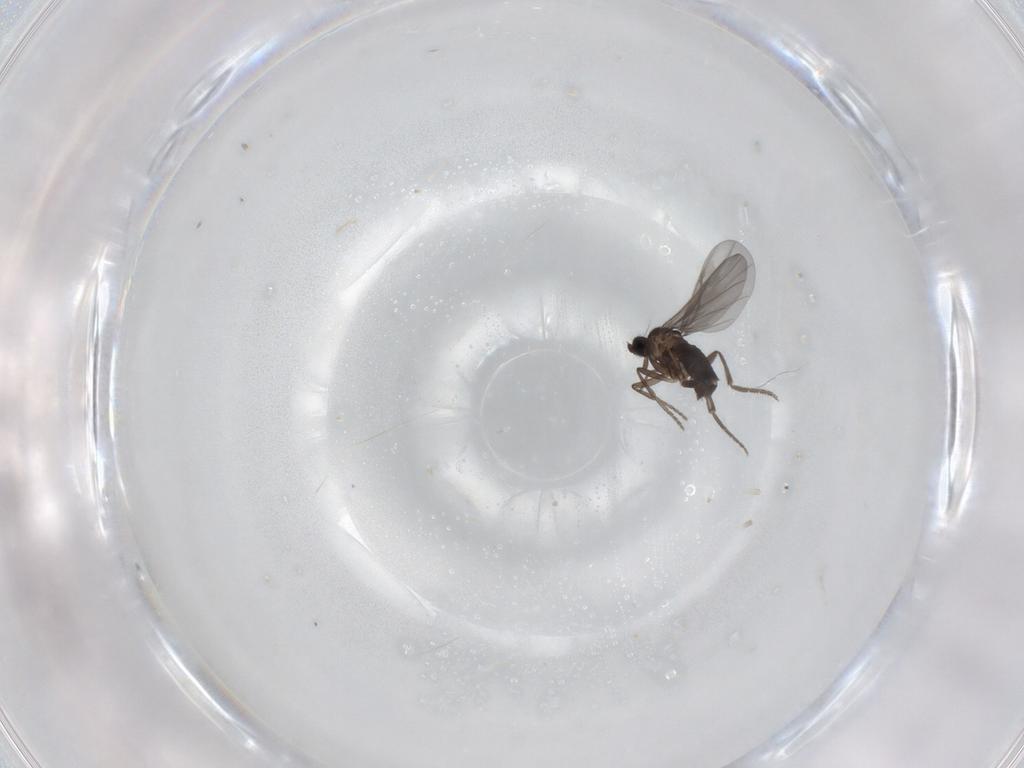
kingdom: Animalia
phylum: Arthropoda
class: Insecta
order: Diptera
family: Phoridae
